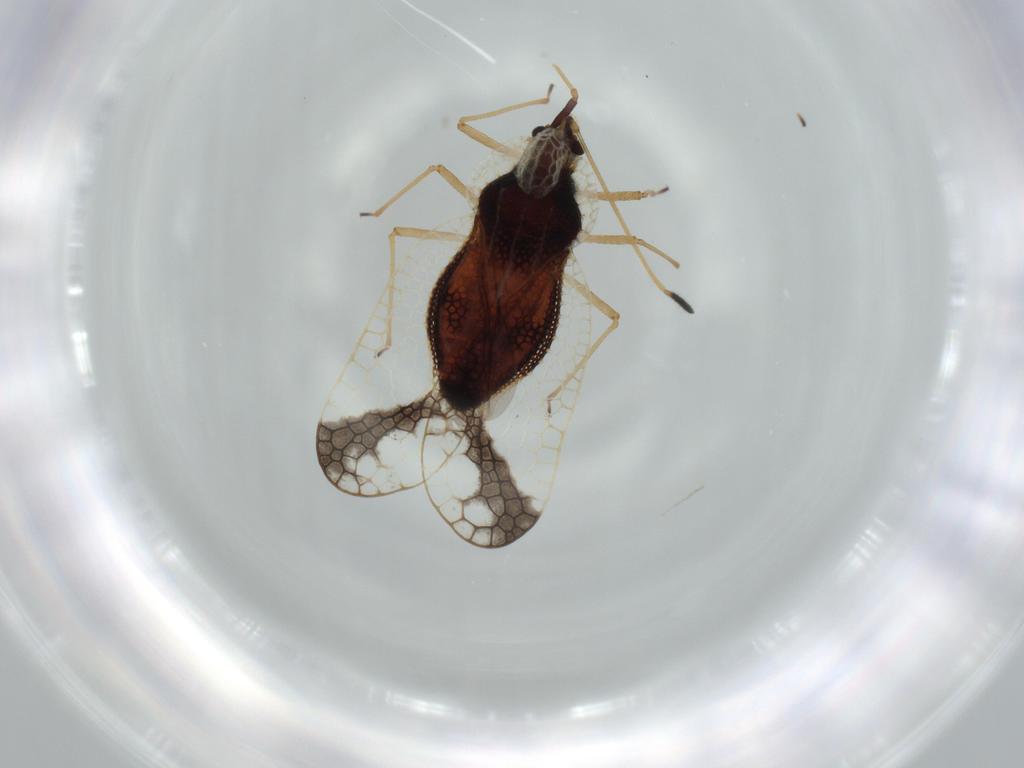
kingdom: Animalia
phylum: Arthropoda
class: Insecta
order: Hemiptera
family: Tingidae
